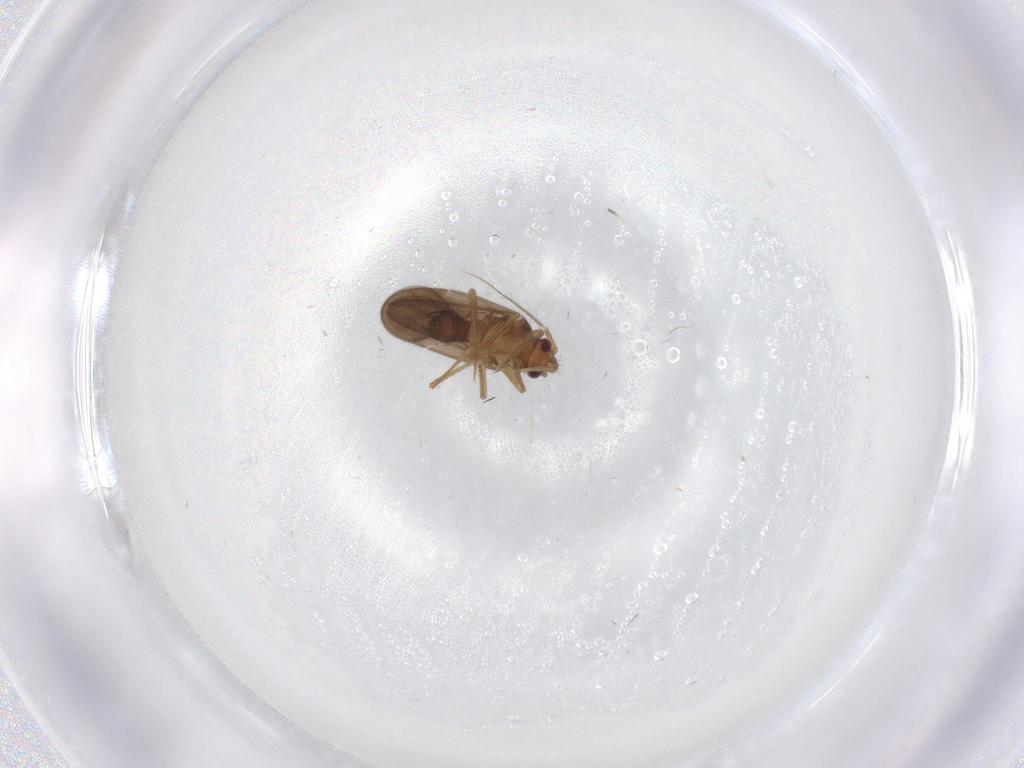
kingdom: Animalia
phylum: Arthropoda
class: Insecta
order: Hemiptera
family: Ceratocombidae
